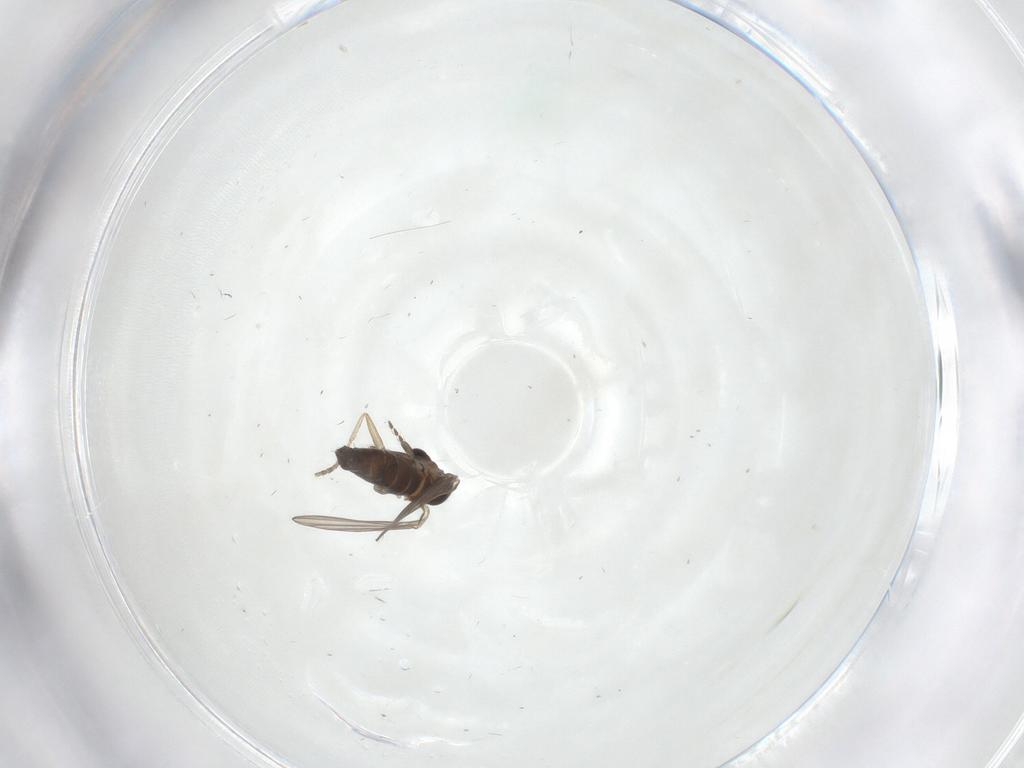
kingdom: Animalia
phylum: Arthropoda
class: Insecta
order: Diptera
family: Psychodidae
